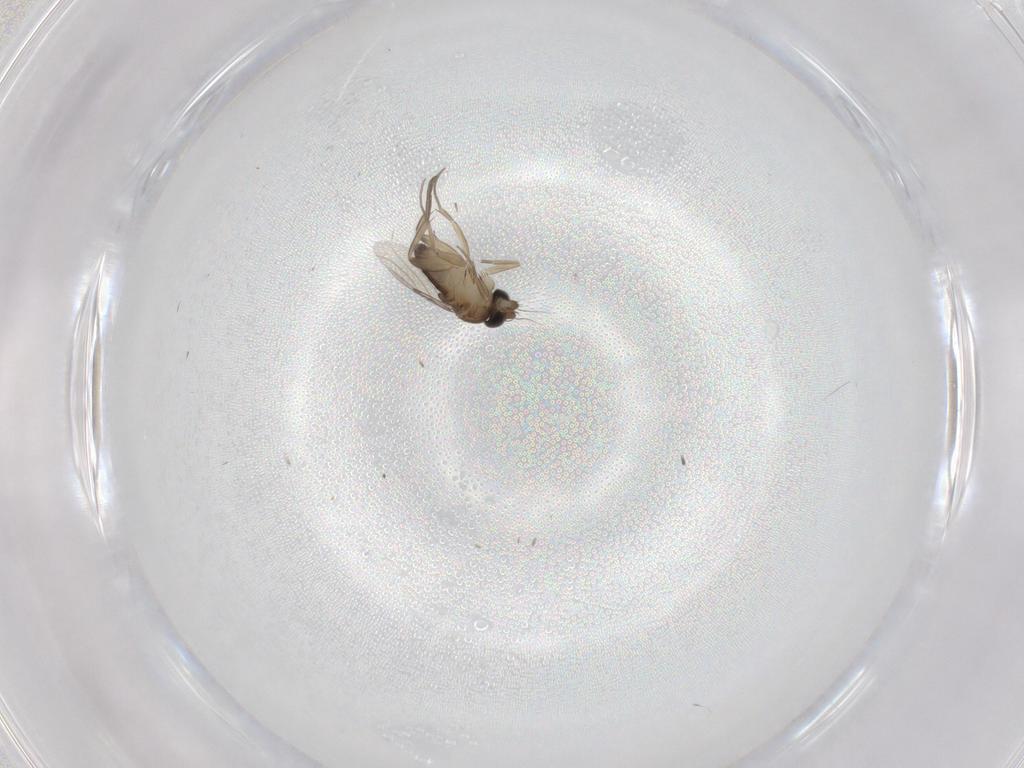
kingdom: Animalia
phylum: Arthropoda
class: Insecta
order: Diptera
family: Phoridae
